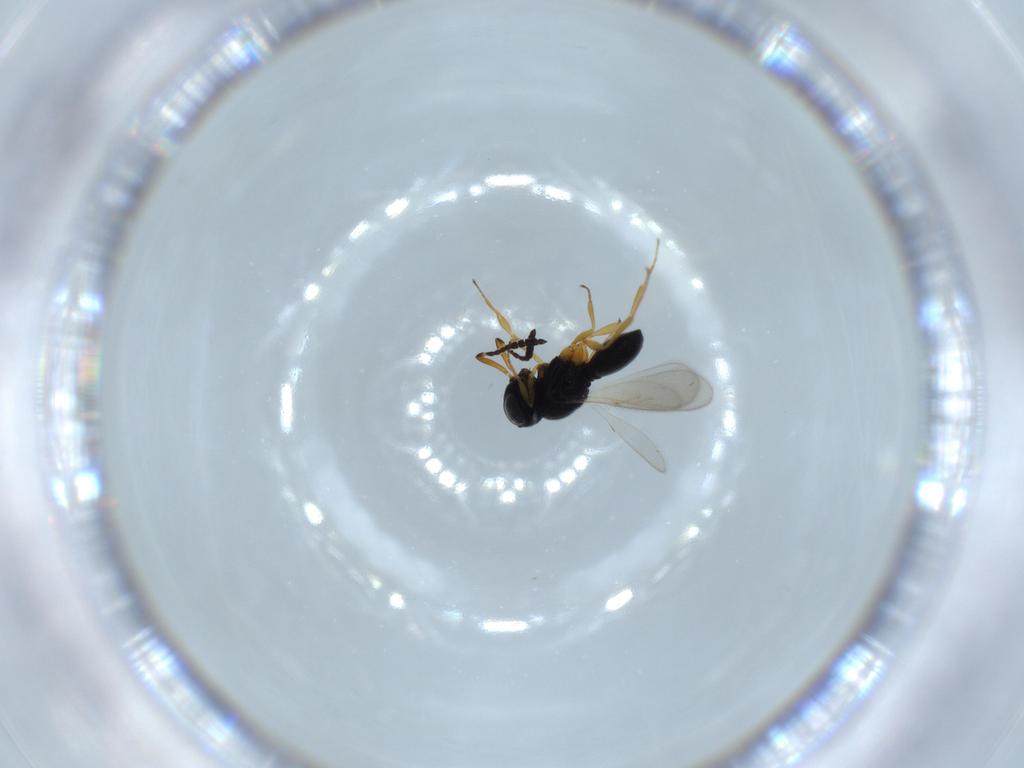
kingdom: Animalia
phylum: Arthropoda
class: Insecta
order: Hymenoptera
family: Scelionidae
